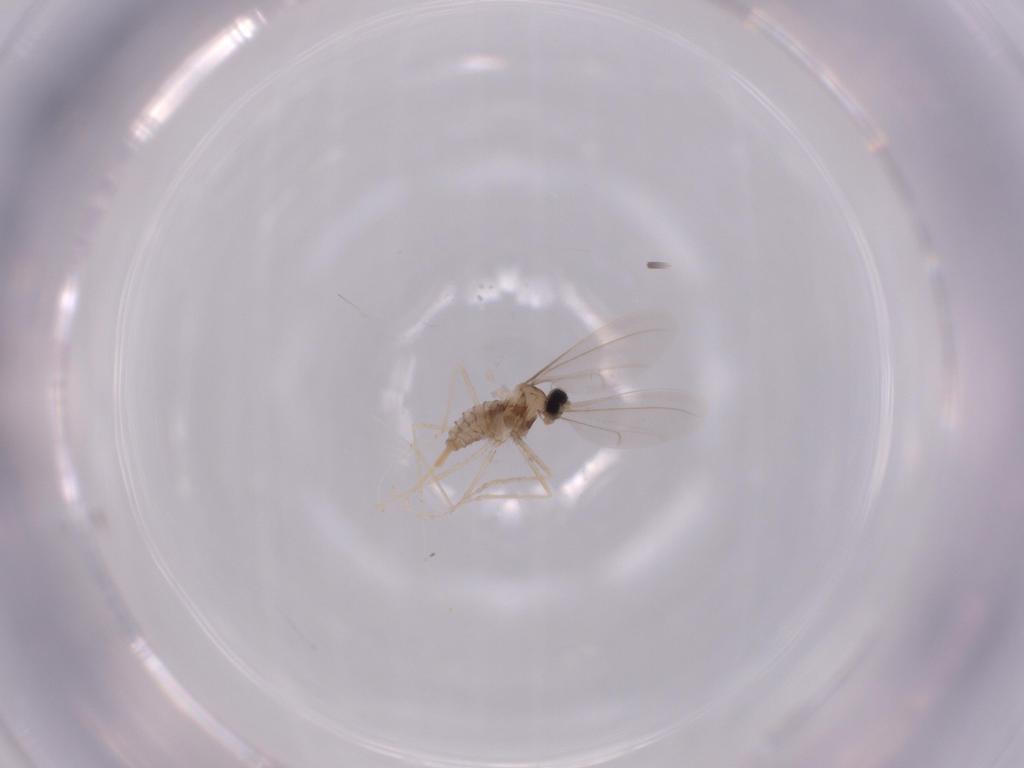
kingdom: Animalia
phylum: Arthropoda
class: Insecta
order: Diptera
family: Cecidomyiidae
